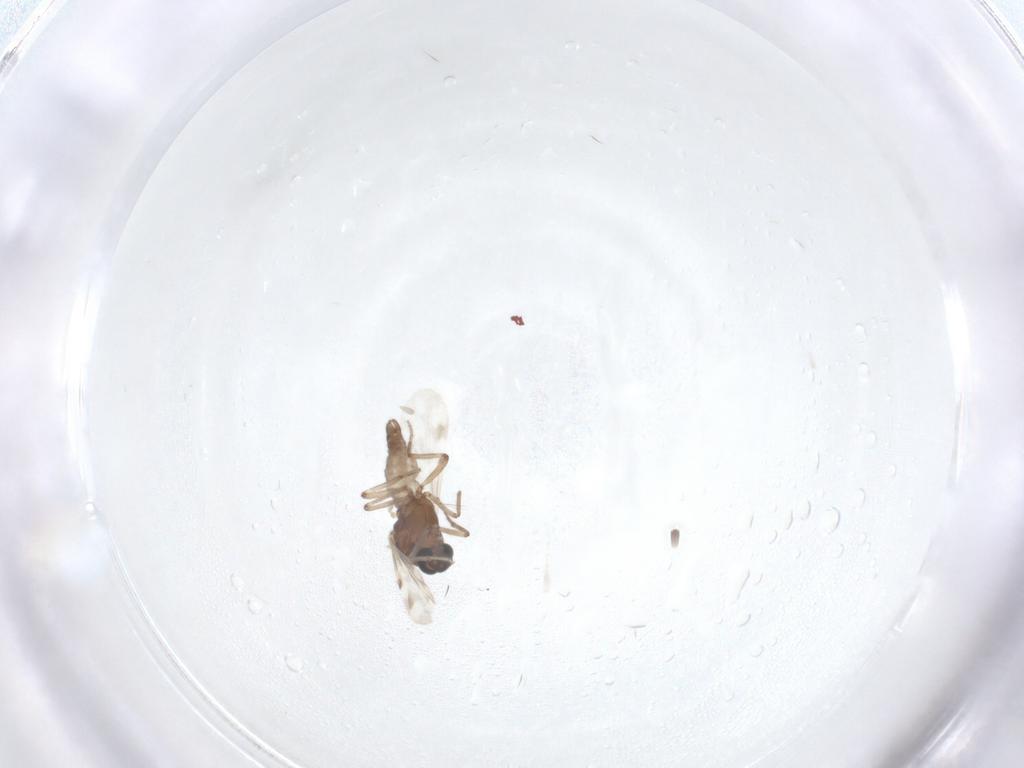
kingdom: Animalia
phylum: Arthropoda
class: Insecta
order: Diptera
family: Ceratopogonidae
